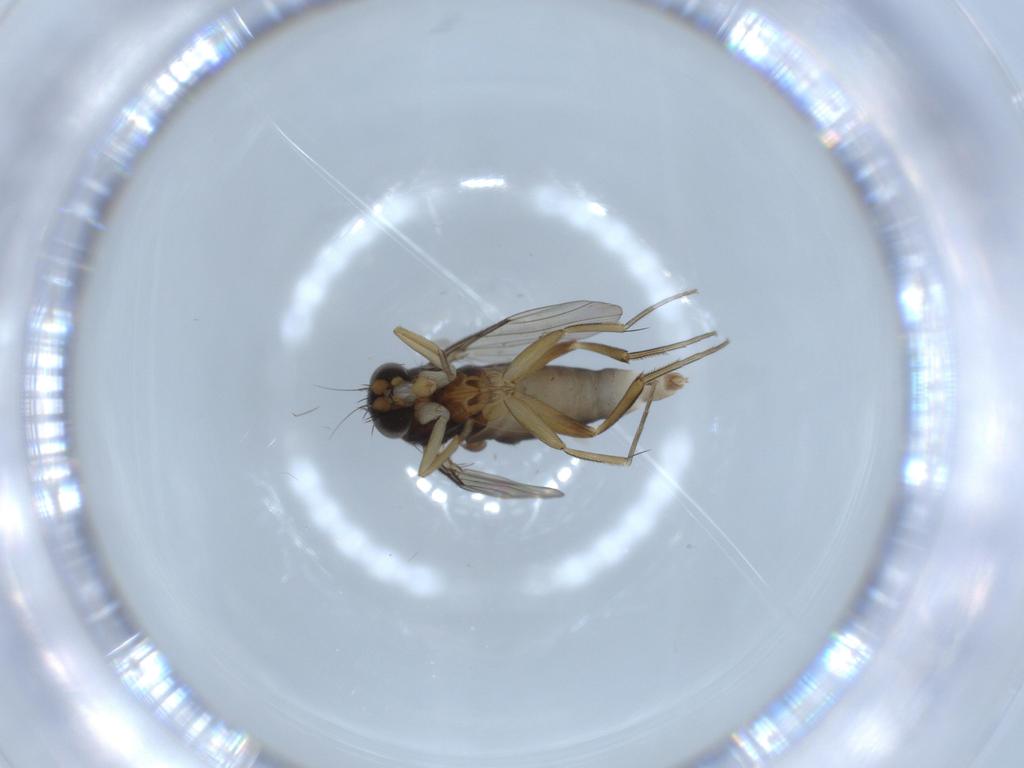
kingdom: Animalia
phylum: Arthropoda
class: Insecta
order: Diptera
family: Phoridae
